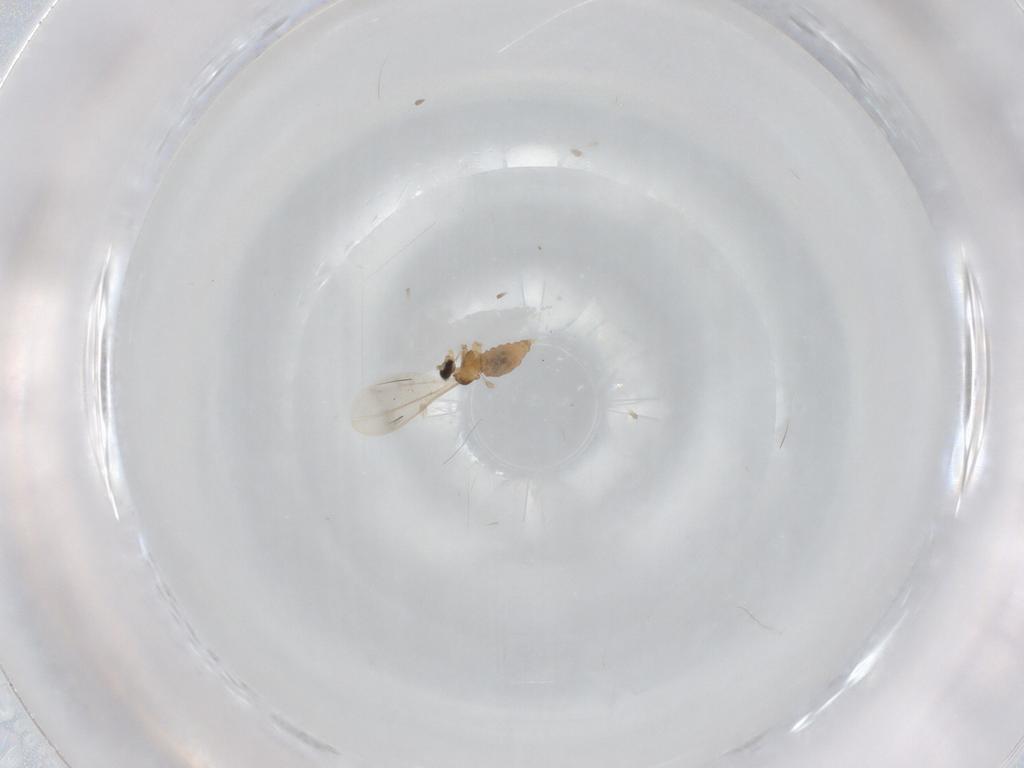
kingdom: Animalia
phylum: Arthropoda
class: Insecta
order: Diptera
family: Cecidomyiidae
